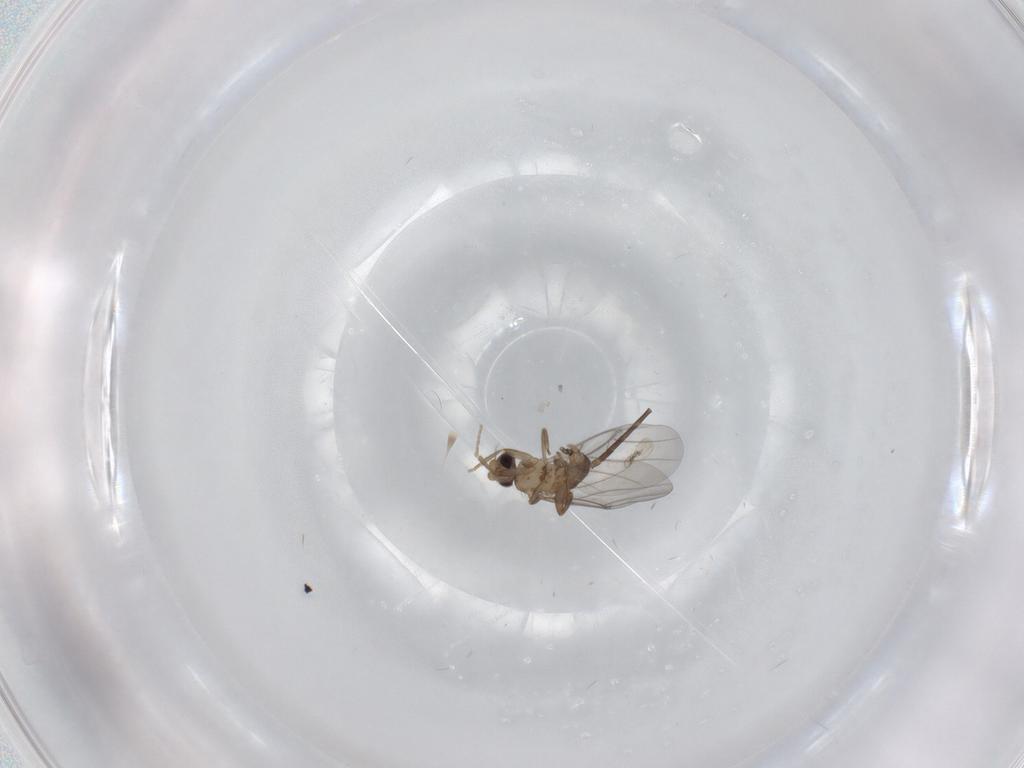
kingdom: Animalia
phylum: Arthropoda
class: Insecta
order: Diptera
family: Cecidomyiidae
